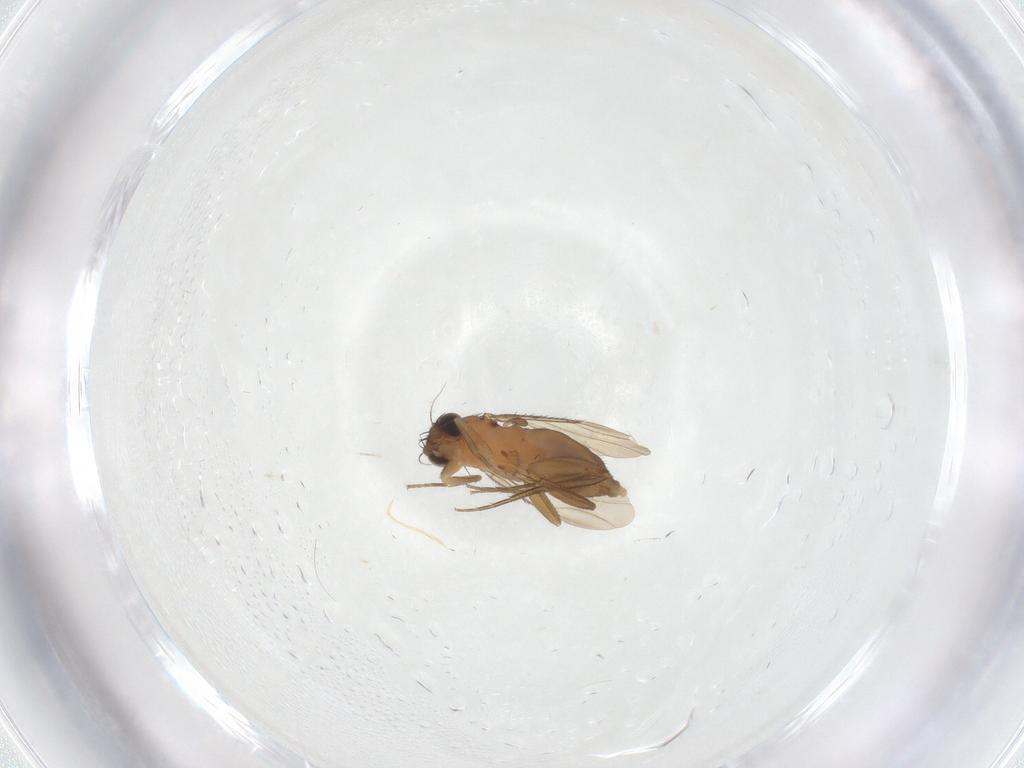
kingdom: Animalia
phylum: Arthropoda
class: Insecta
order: Diptera
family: Phoridae
